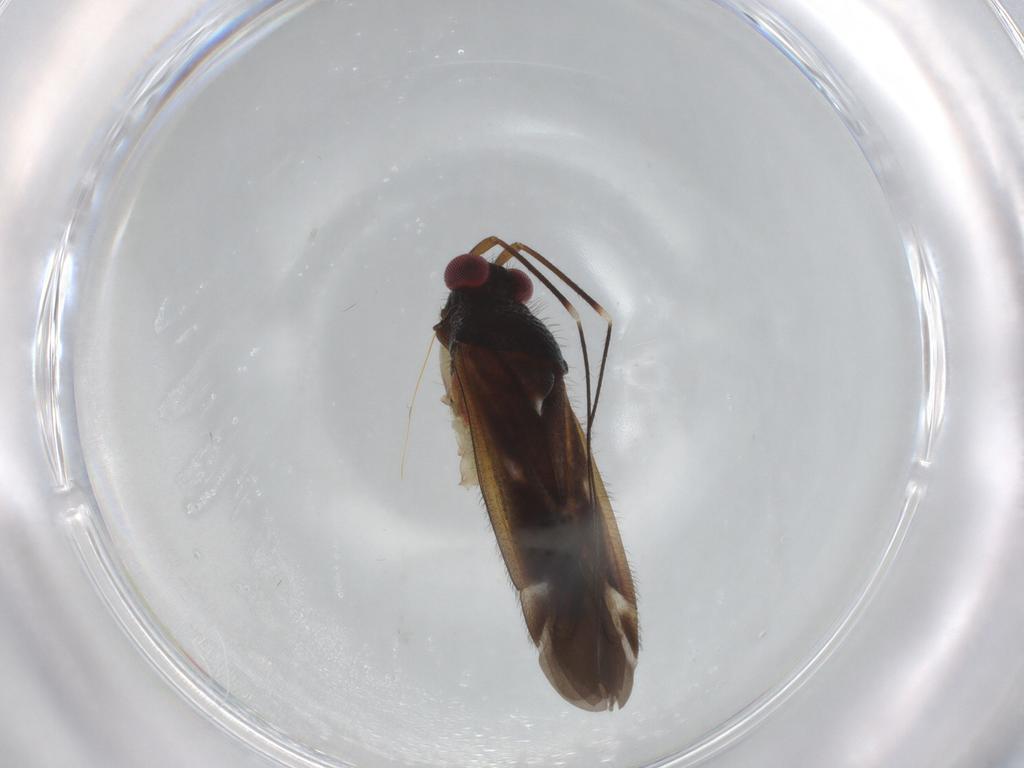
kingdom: Animalia
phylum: Arthropoda
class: Insecta
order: Hemiptera
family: Miridae
